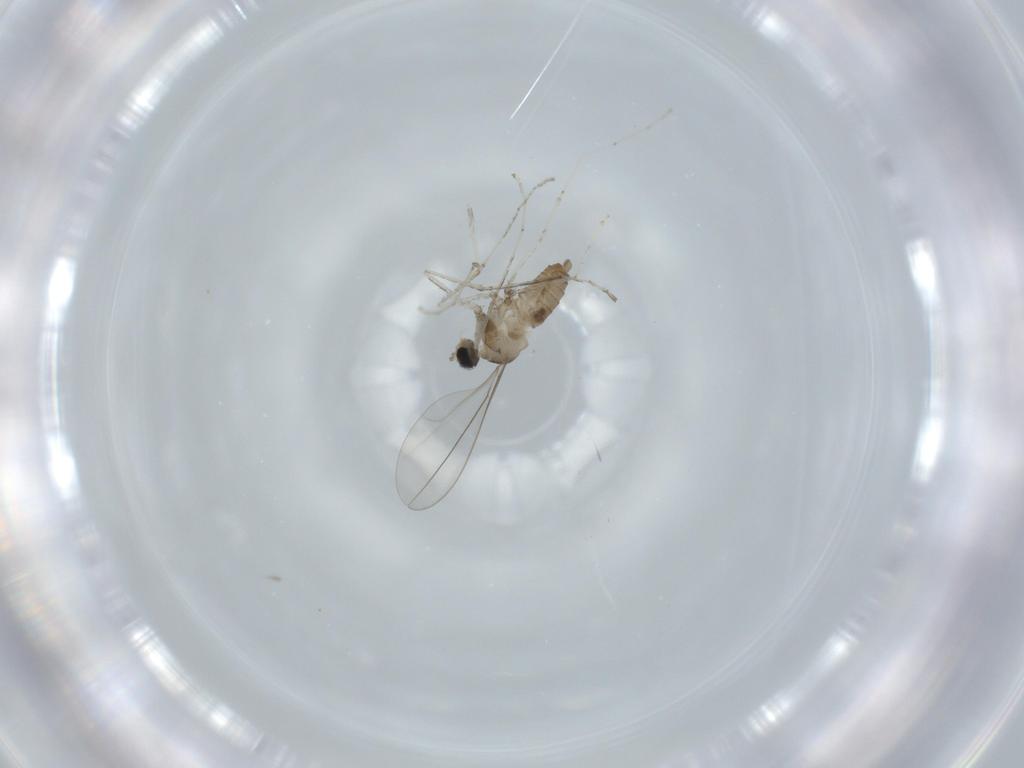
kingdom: Animalia
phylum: Arthropoda
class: Insecta
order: Diptera
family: Cecidomyiidae
